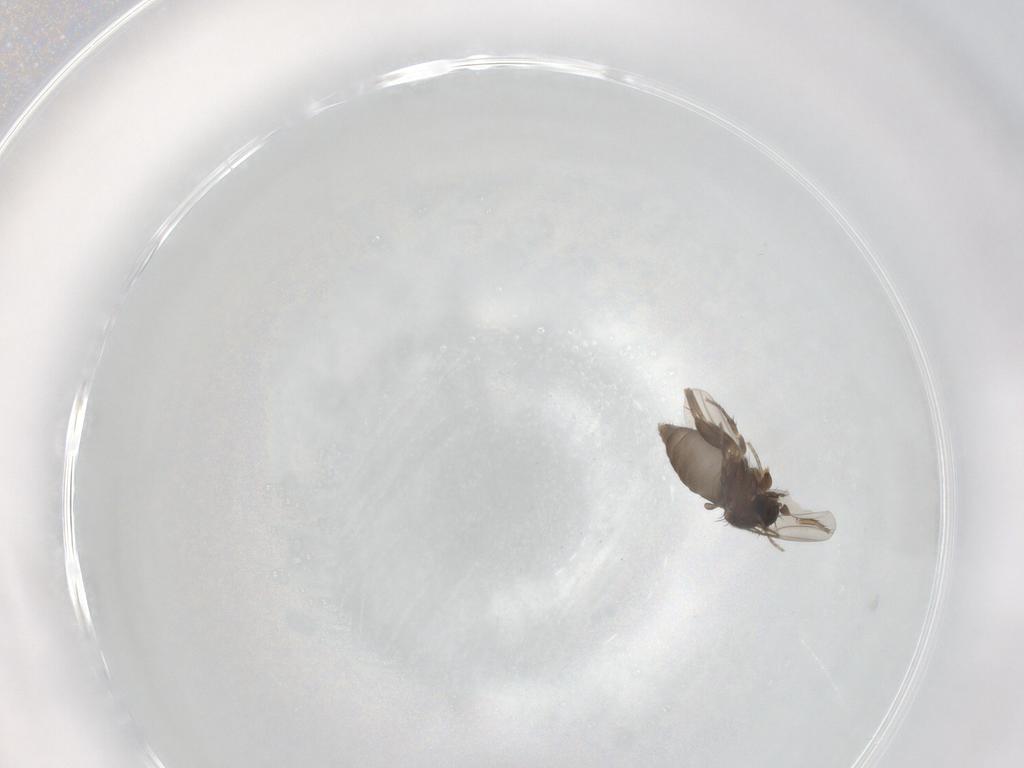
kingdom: Animalia
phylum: Arthropoda
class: Insecta
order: Diptera
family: Phoridae
